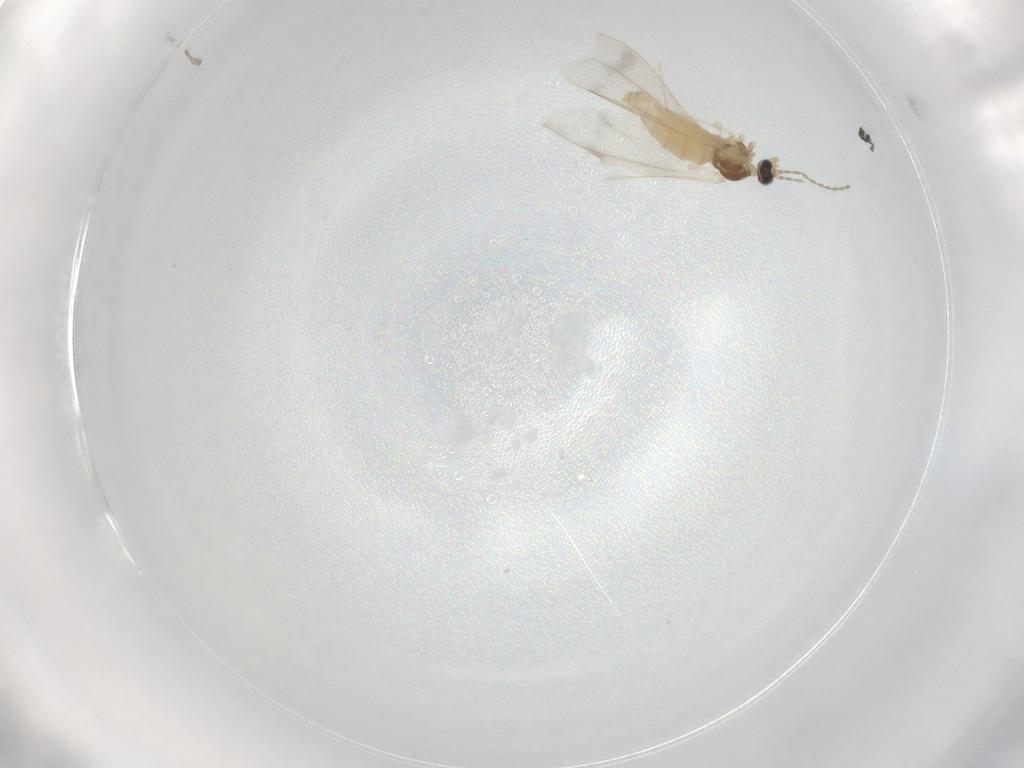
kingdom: Animalia
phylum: Arthropoda
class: Insecta
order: Diptera
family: Cecidomyiidae
